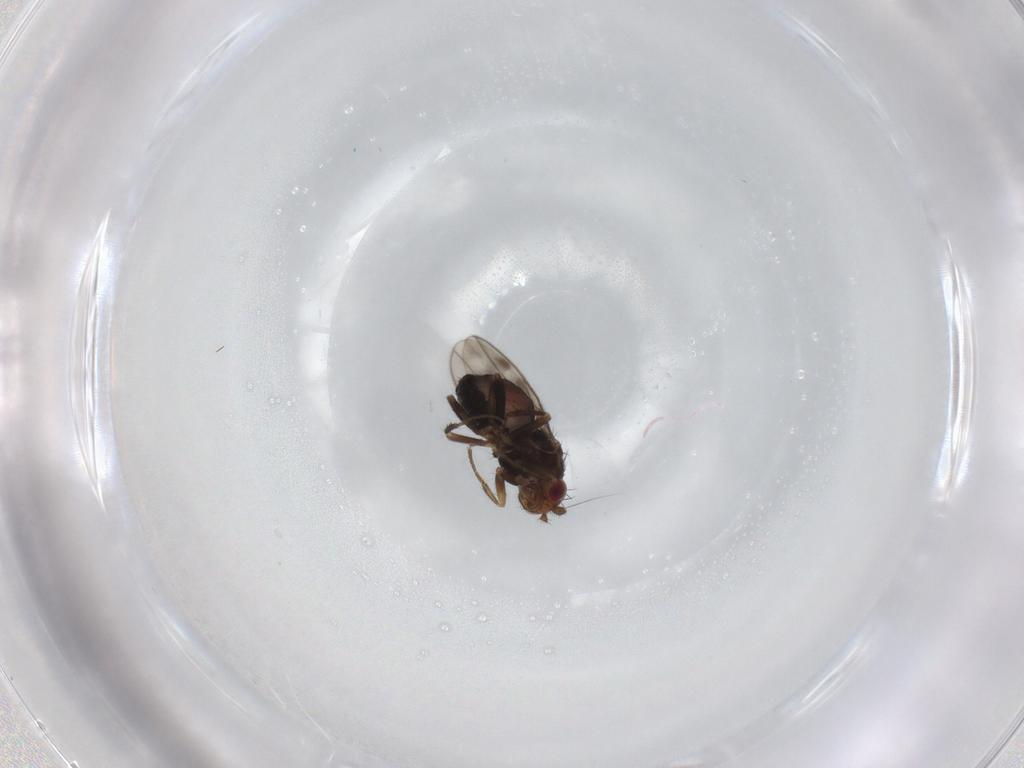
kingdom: Animalia
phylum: Arthropoda
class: Insecta
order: Diptera
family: Sphaeroceridae
